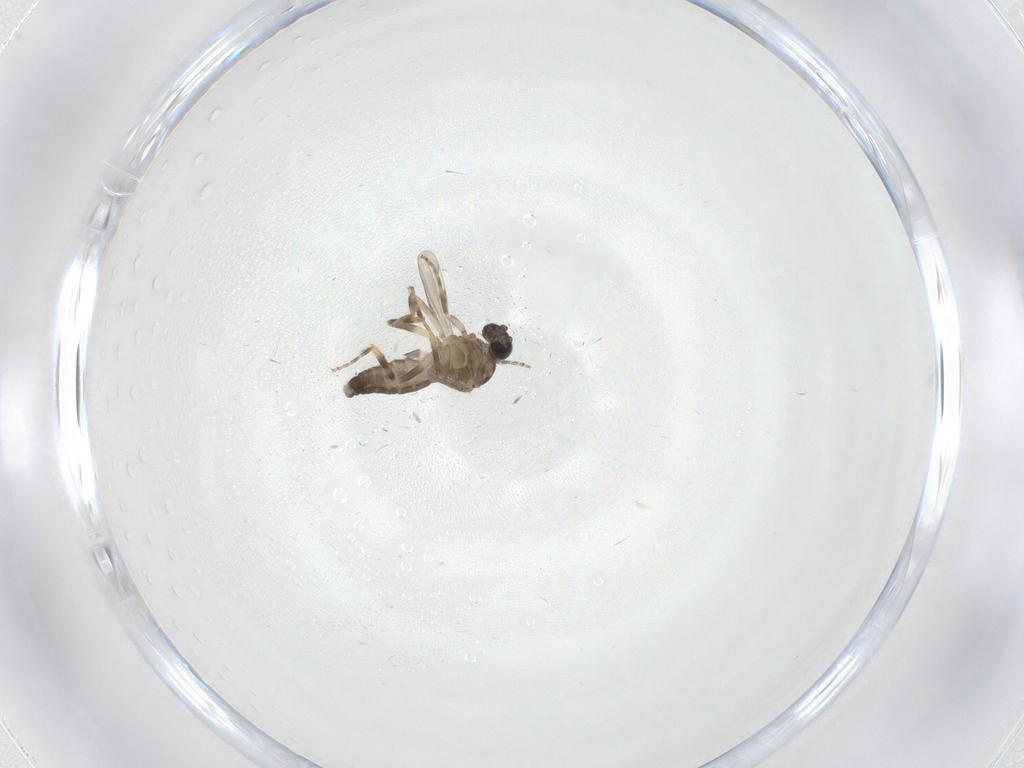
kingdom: Animalia
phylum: Arthropoda
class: Insecta
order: Diptera
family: Ceratopogonidae
